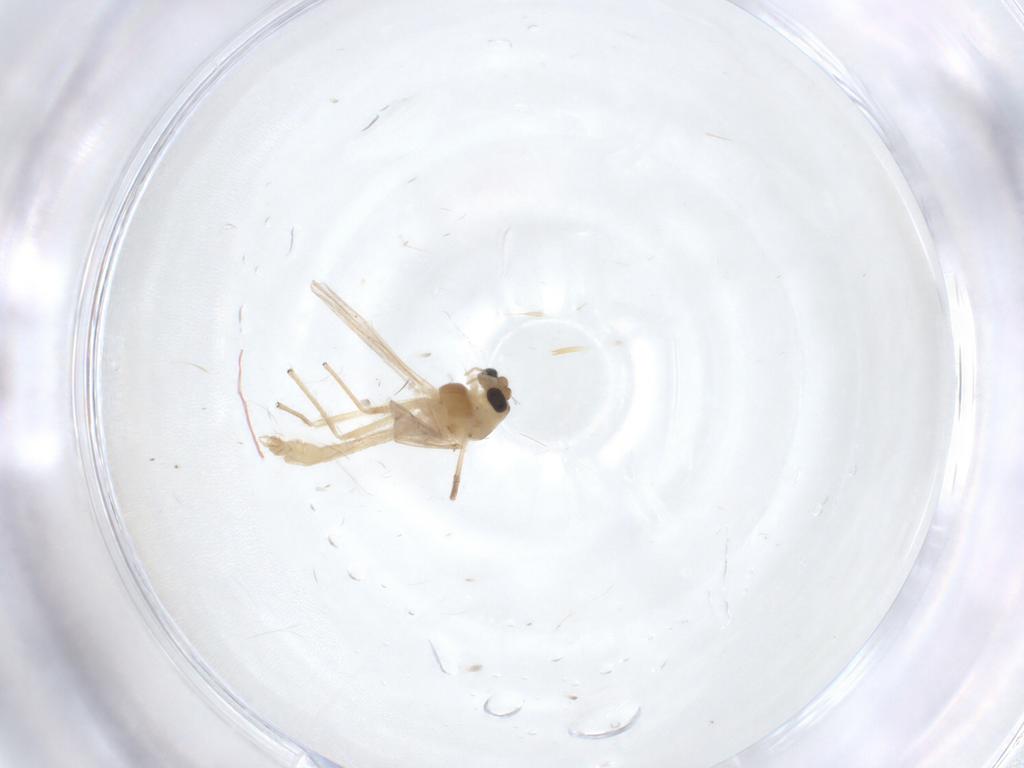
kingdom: Animalia
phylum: Arthropoda
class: Insecta
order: Diptera
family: Chironomidae
